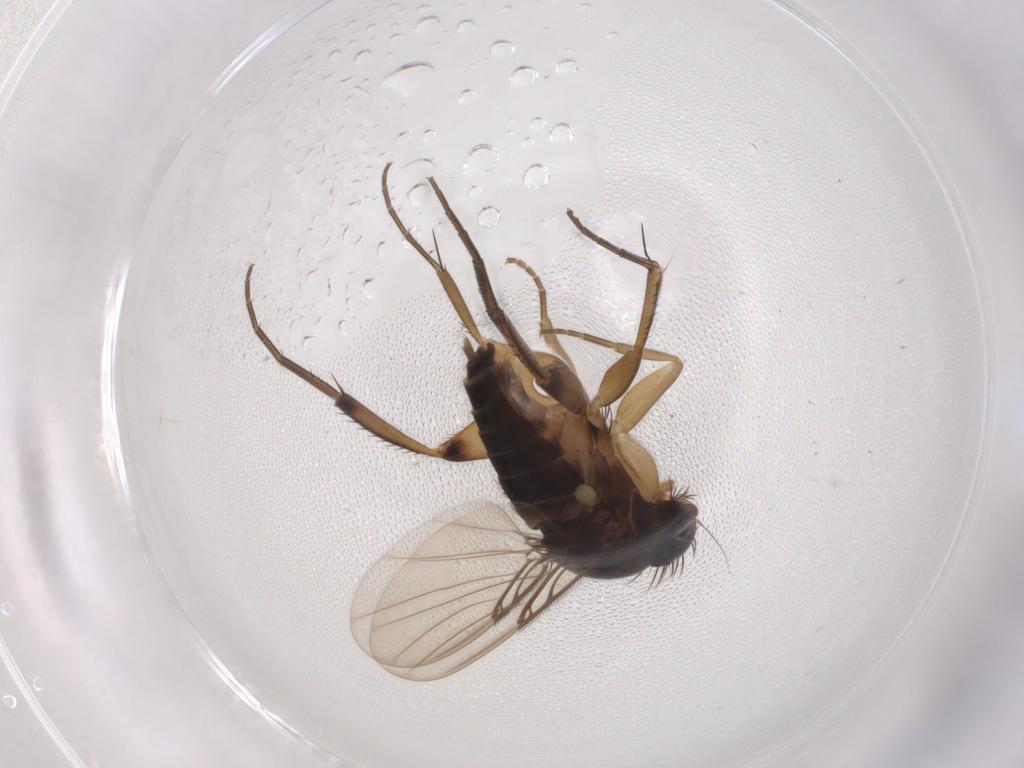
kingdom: Animalia
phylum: Arthropoda
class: Insecta
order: Diptera
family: Phoridae
